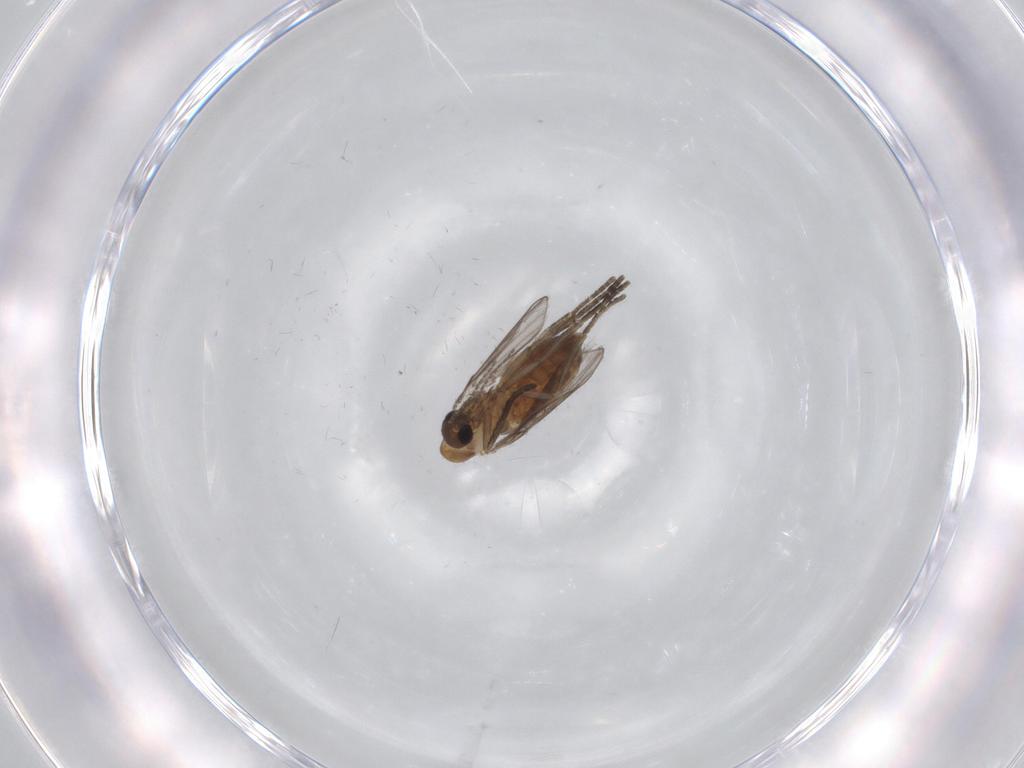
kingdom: Animalia
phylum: Arthropoda
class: Insecta
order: Diptera
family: Psychodidae
